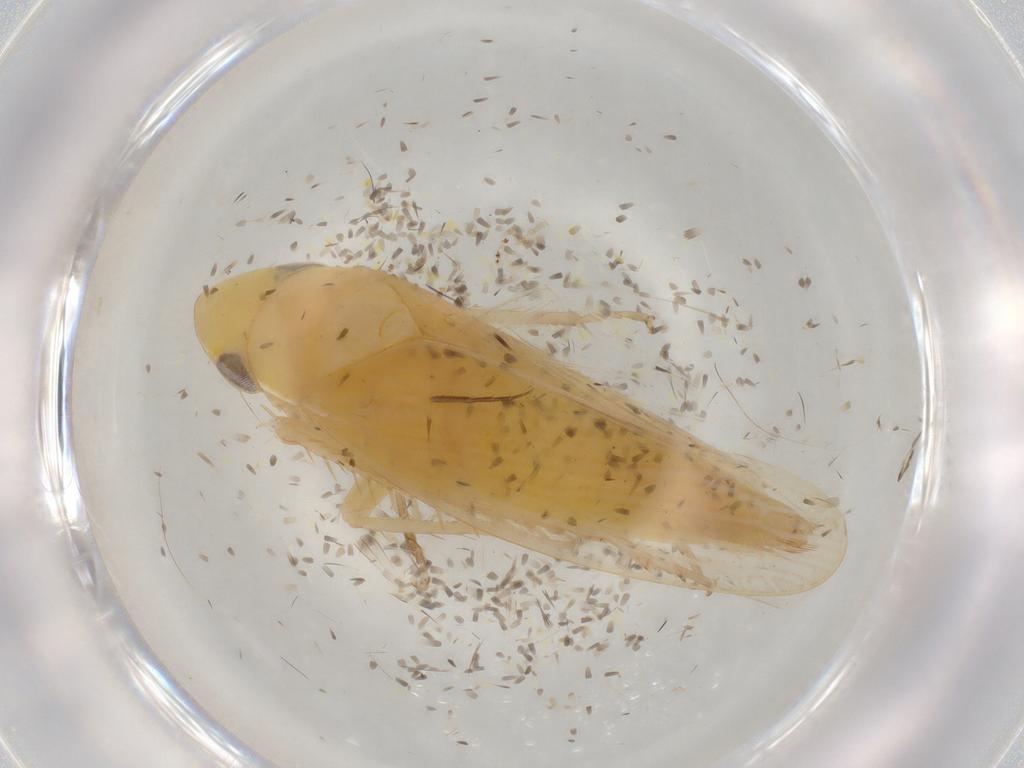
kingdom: Animalia
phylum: Arthropoda
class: Insecta
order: Hemiptera
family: Cicadellidae
